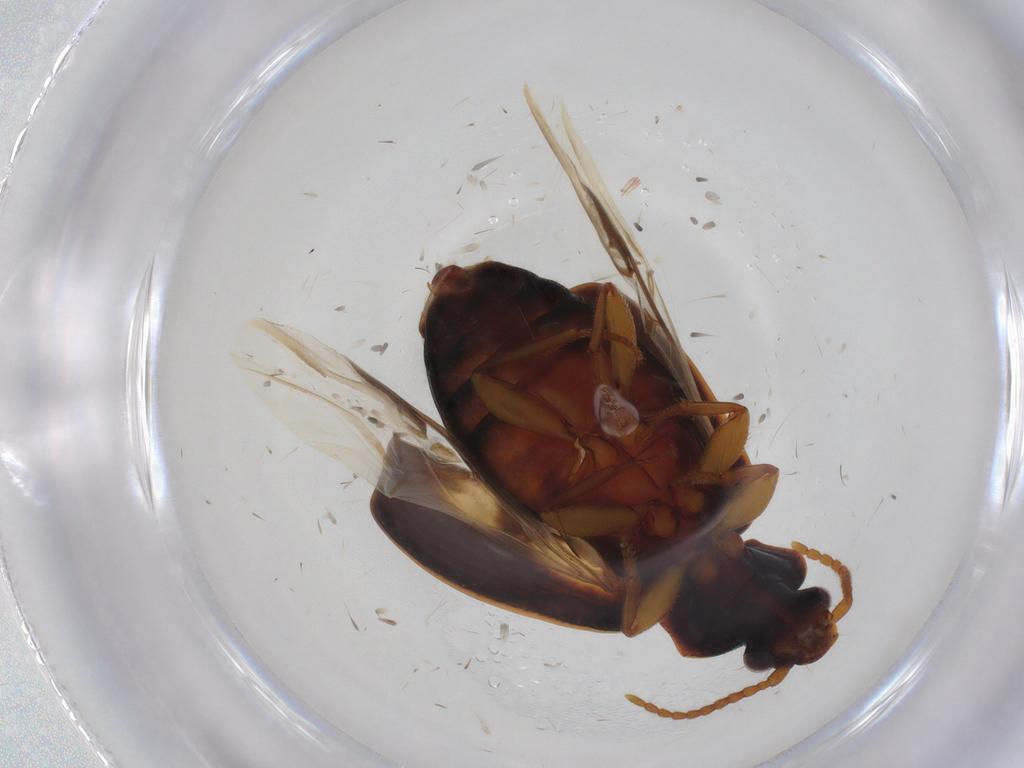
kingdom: Animalia
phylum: Arthropoda
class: Insecta
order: Coleoptera
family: Carabidae
